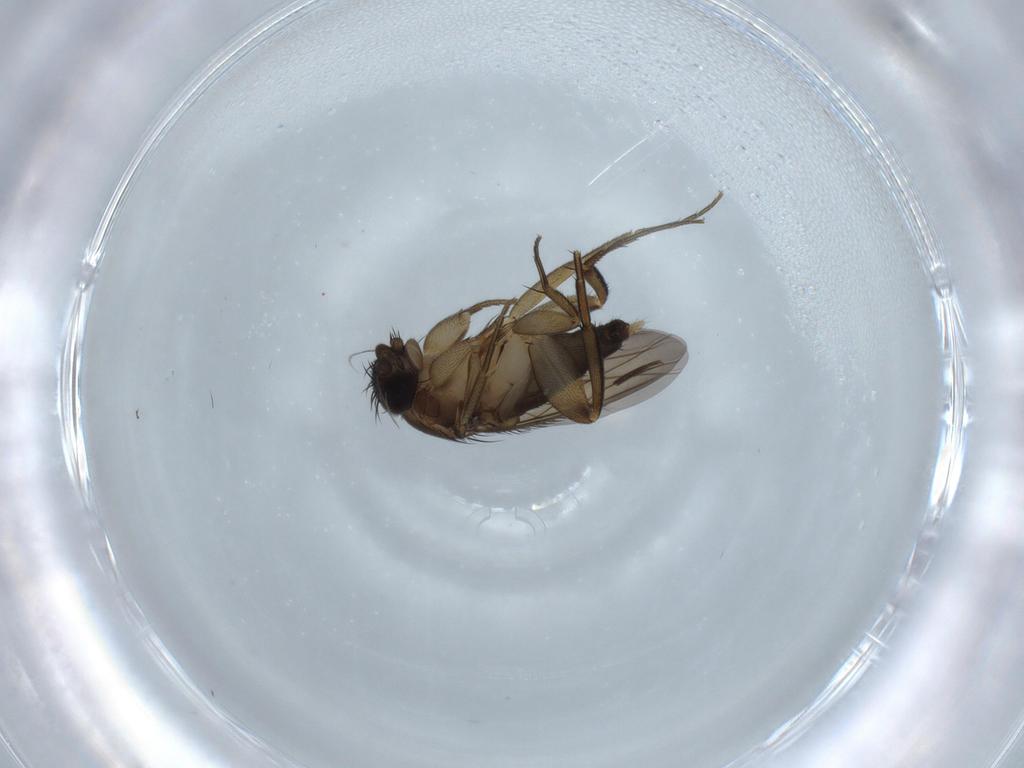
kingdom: Animalia
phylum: Arthropoda
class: Insecta
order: Diptera
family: Phoridae
